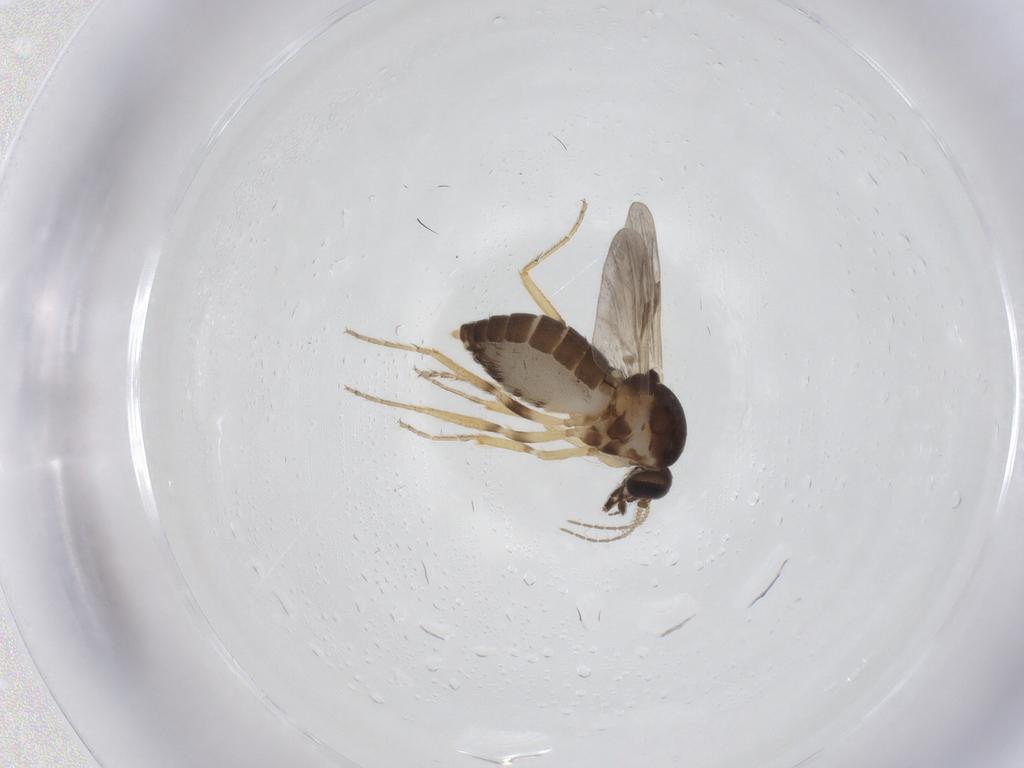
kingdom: Animalia
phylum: Arthropoda
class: Insecta
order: Diptera
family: Ceratopogonidae
